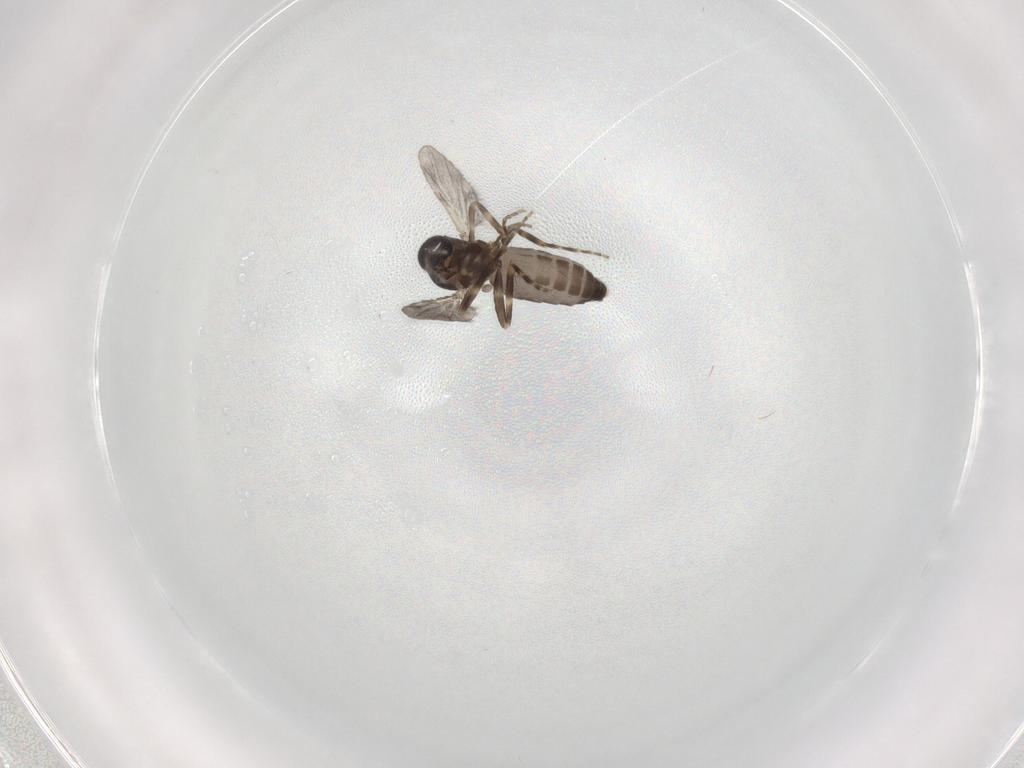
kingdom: Animalia
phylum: Arthropoda
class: Insecta
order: Diptera
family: Ceratopogonidae
